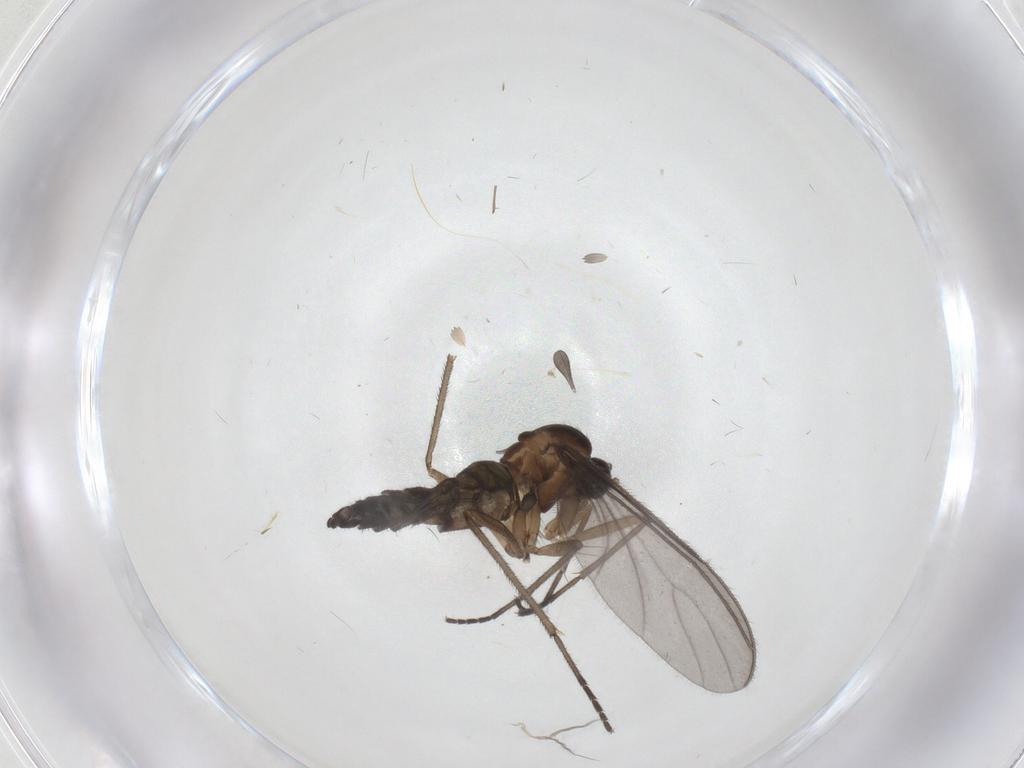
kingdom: Animalia
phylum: Arthropoda
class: Insecta
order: Diptera
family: Sciaridae
